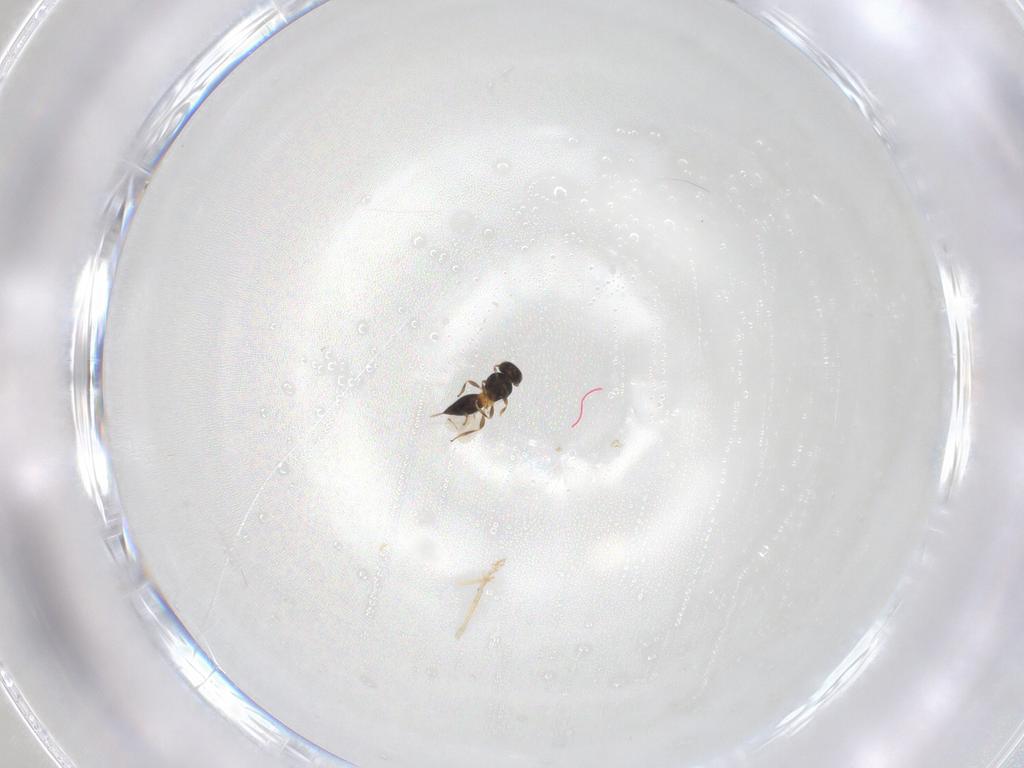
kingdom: Animalia
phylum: Arthropoda
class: Insecta
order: Hymenoptera
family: Platygastridae
